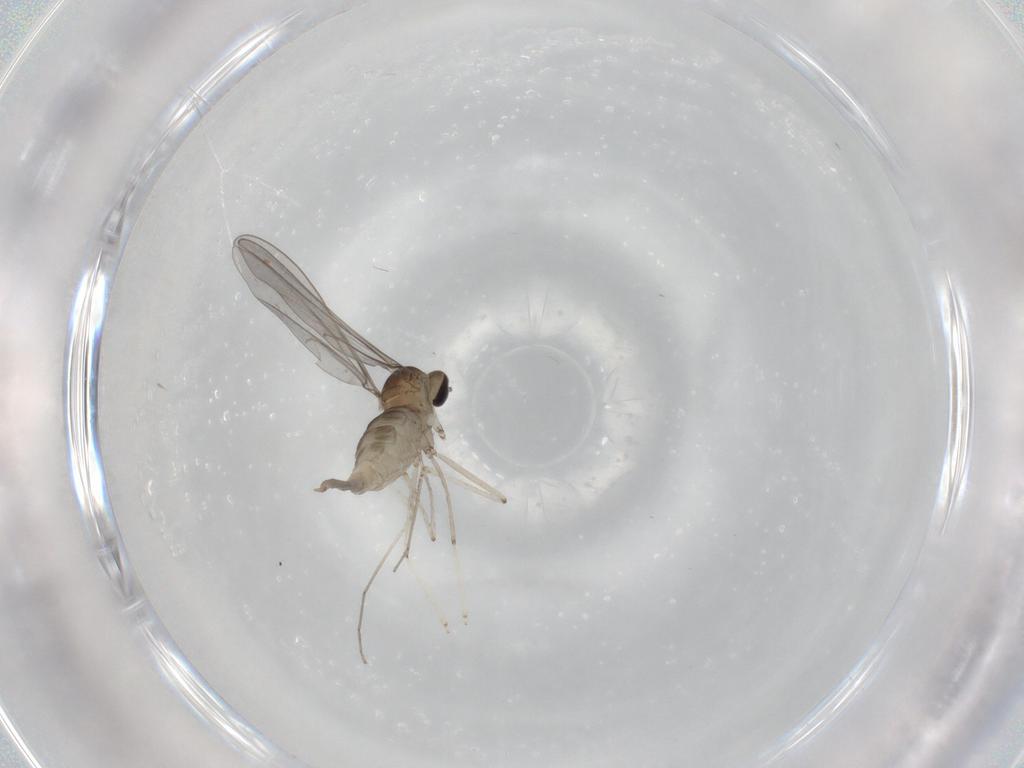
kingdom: Animalia
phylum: Arthropoda
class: Insecta
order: Diptera
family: Cecidomyiidae
